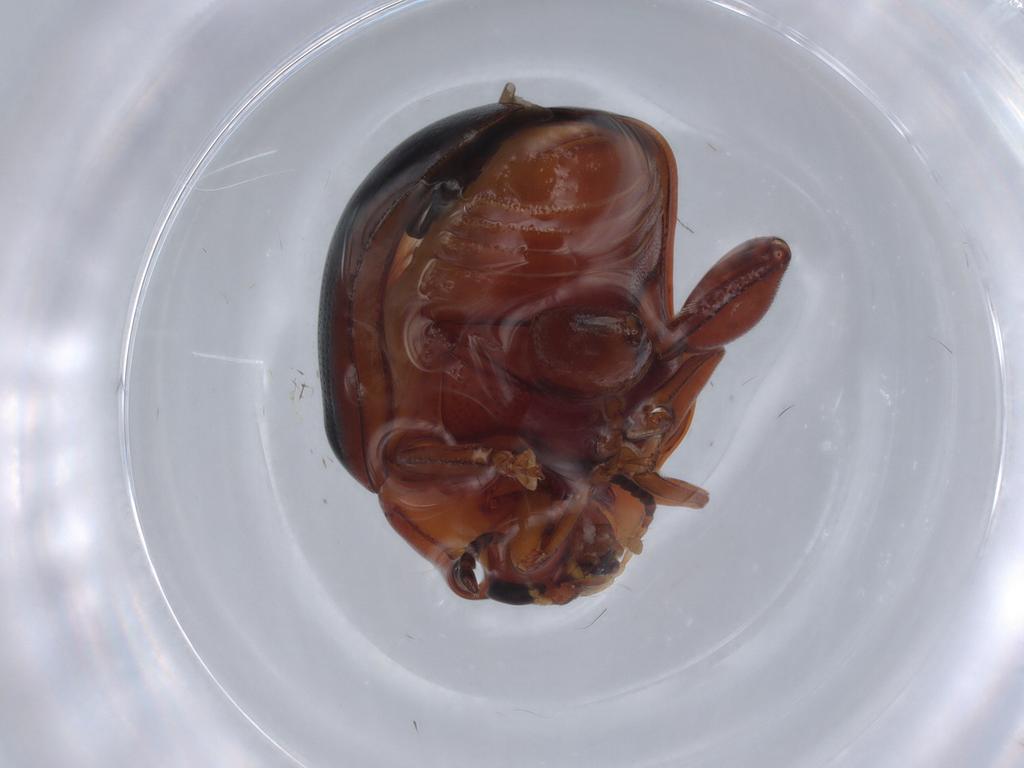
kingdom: Animalia
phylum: Arthropoda
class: Insecta
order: Coleoptera
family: Chrysomelidae
